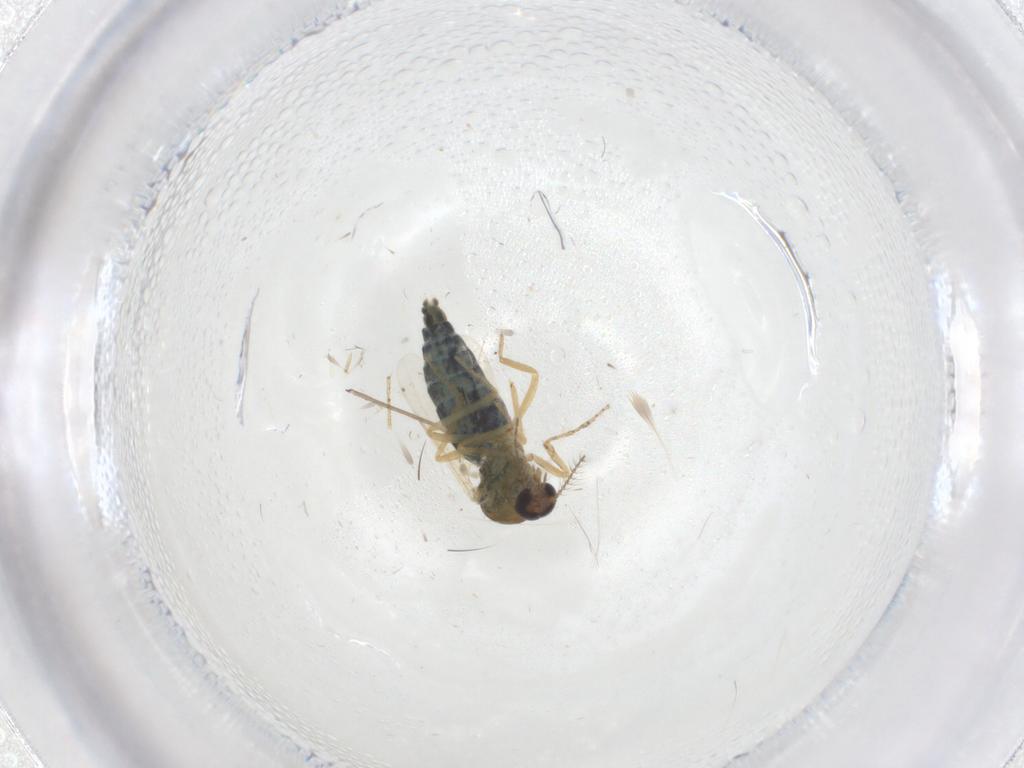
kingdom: Animalia
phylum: Arthropoda
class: Insecta
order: Diptera
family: Ceratopogonidae
